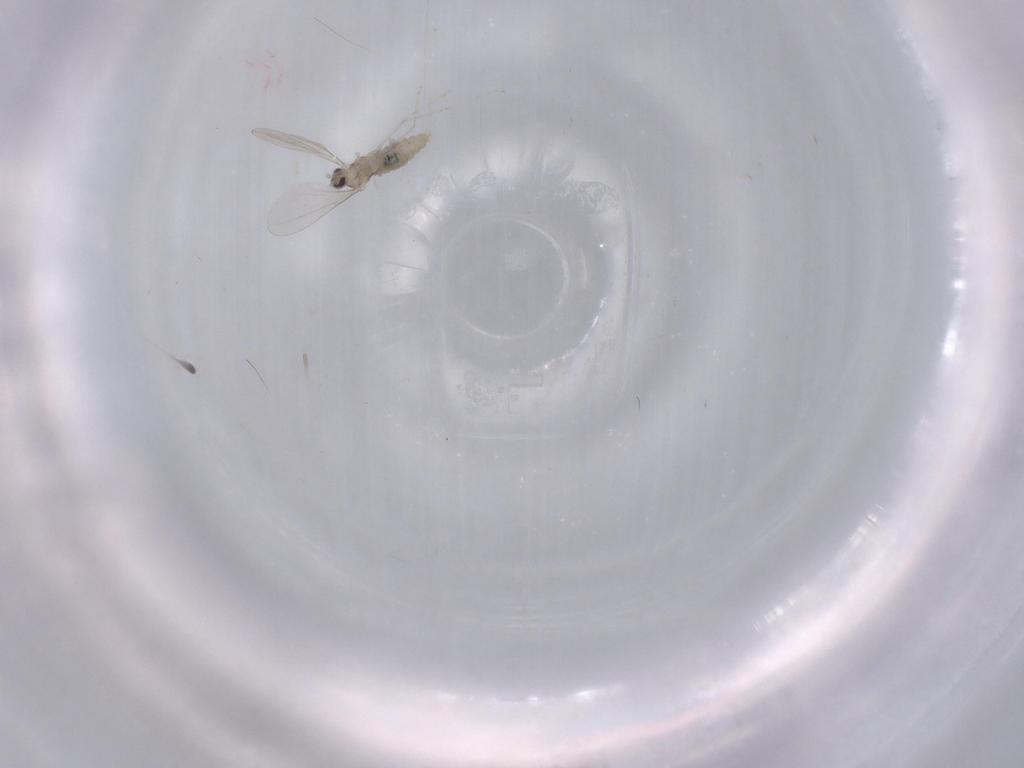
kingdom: Animalia
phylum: Arthropoda
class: Insecta
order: Diptera
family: Cecidomyiidae
